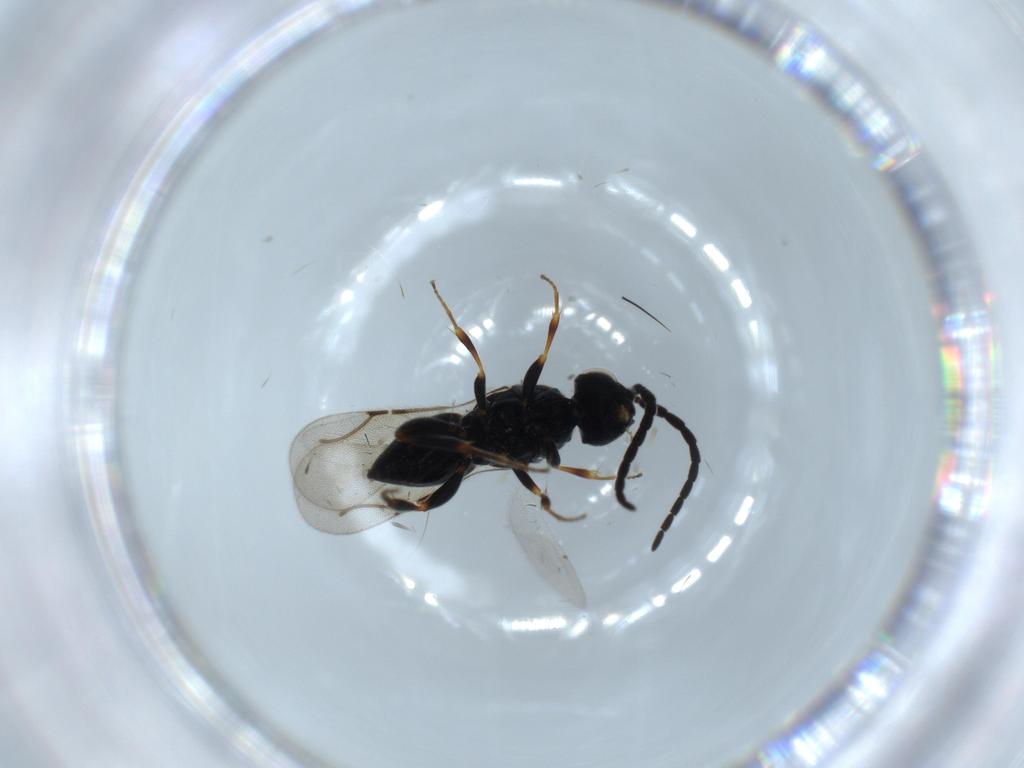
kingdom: Animalia
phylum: Arthropoda
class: Insecta
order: Hymenoptera
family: Ceraphronidae
